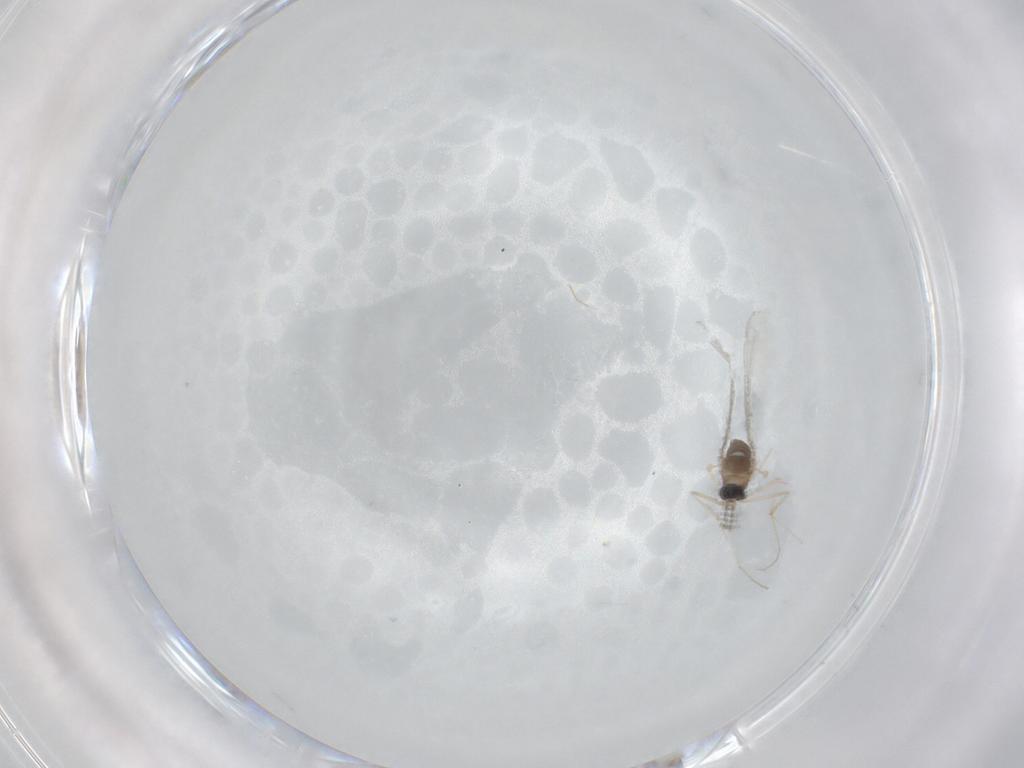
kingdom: Animalia
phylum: Arthropoda
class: Insecta
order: Diptera
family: Cecidomyiidae
